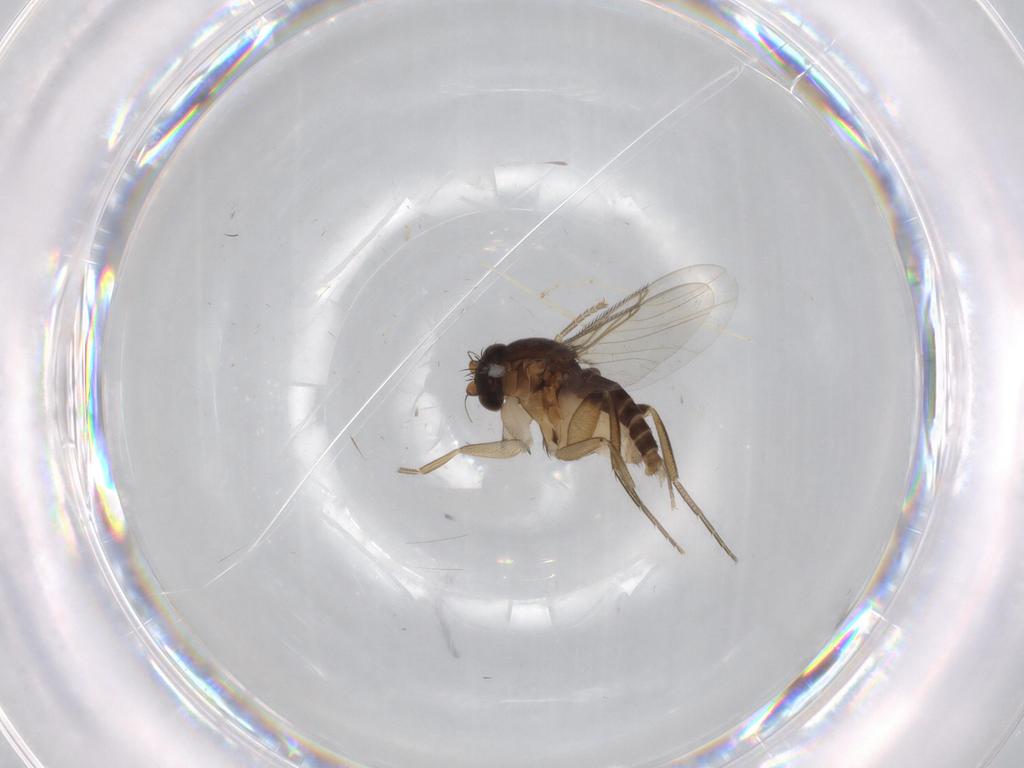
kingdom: Animalia
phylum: Arthropoda
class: Insecta
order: Diptera
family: Phoridae
